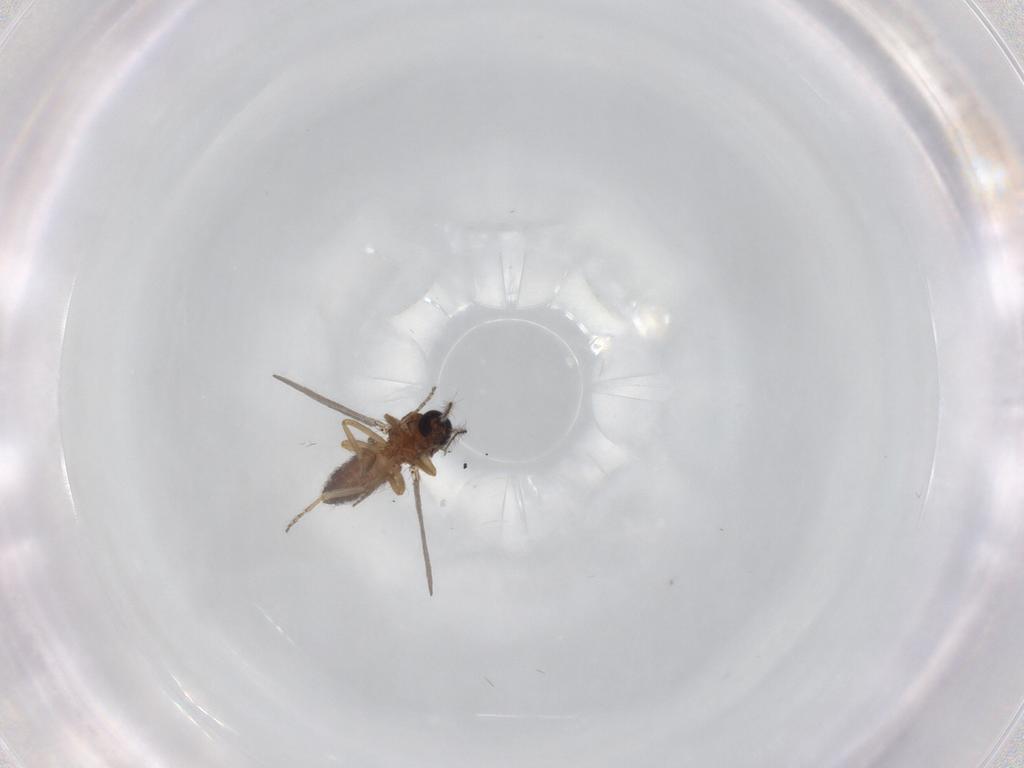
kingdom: Animalia
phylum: Arthropoda
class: Insecta
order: Diptera
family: Ceratopogonidae
